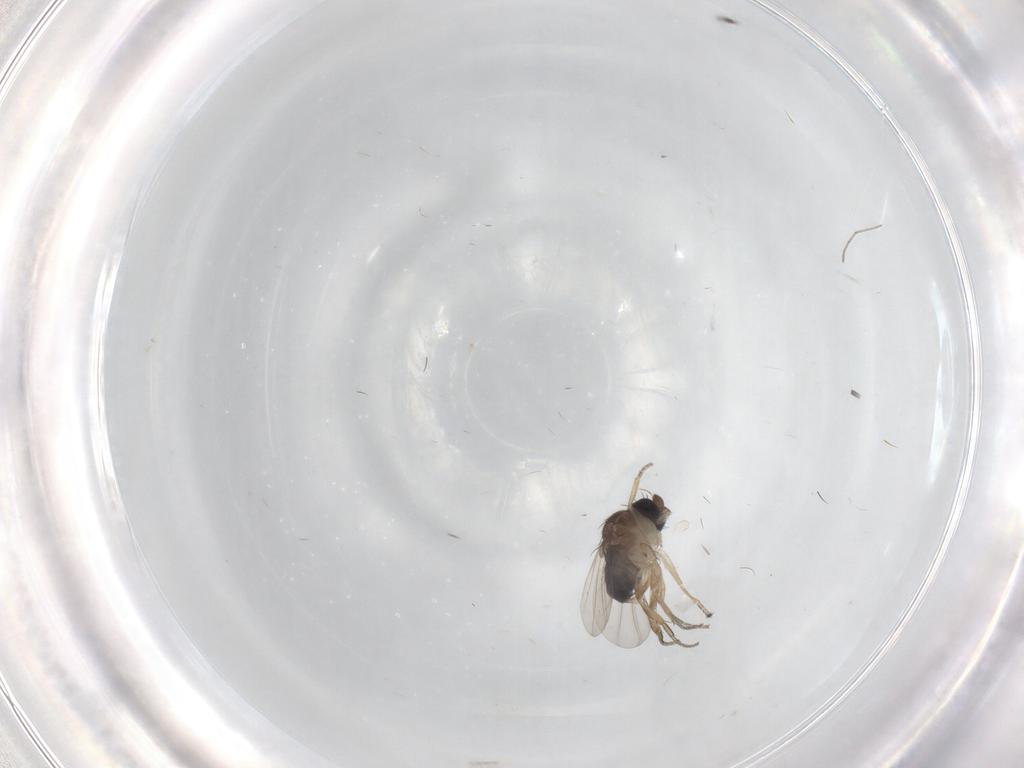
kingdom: Animalia
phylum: Arthropoda
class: Insecta
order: Diptera
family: Phoridae
